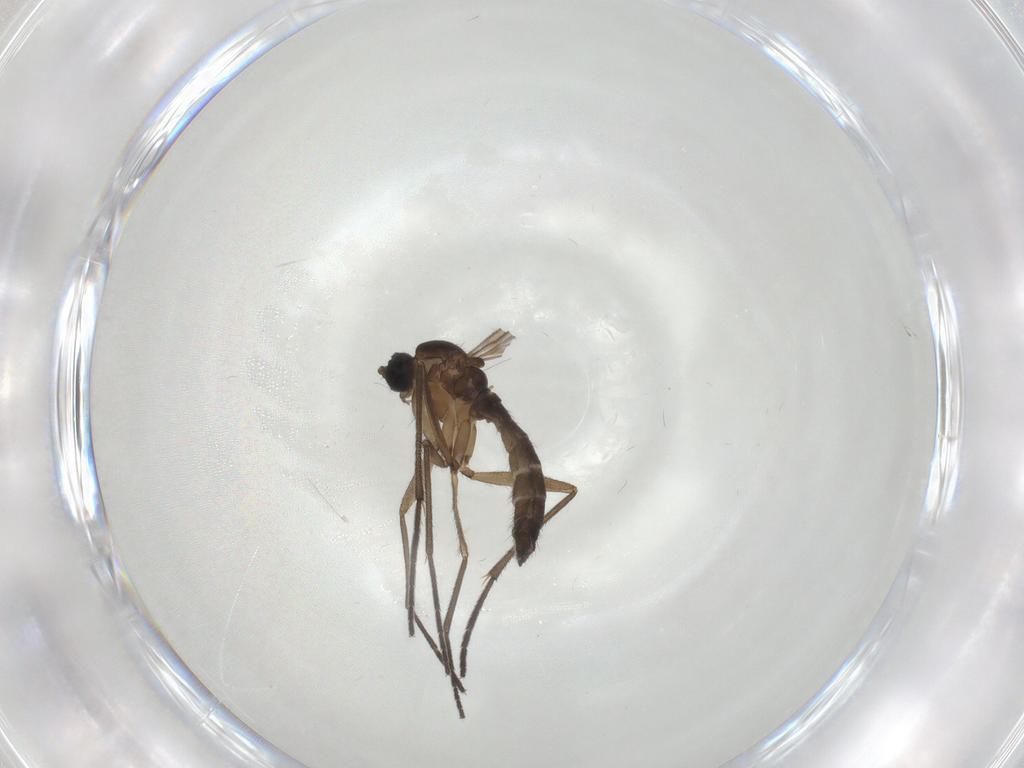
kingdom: Animalia
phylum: Arthropoda
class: Insecta
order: Diptera
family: Sciaridae
